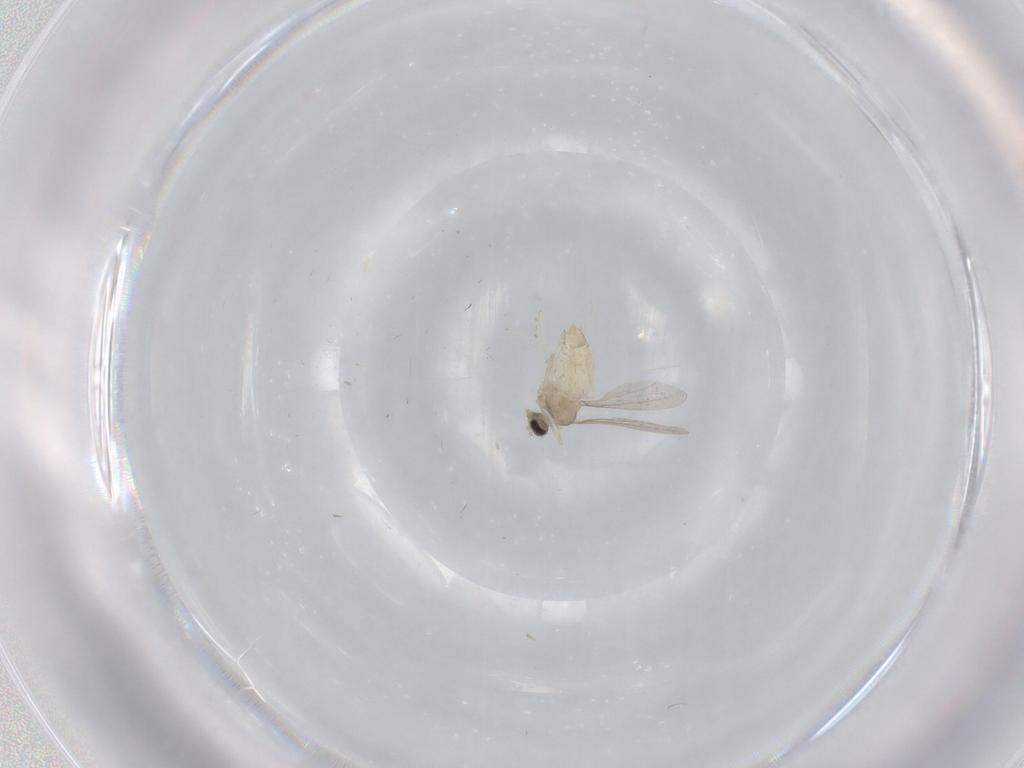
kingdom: Animalia
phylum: Arthropoda
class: Insecta
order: Diptera
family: Cecidomyiidae
